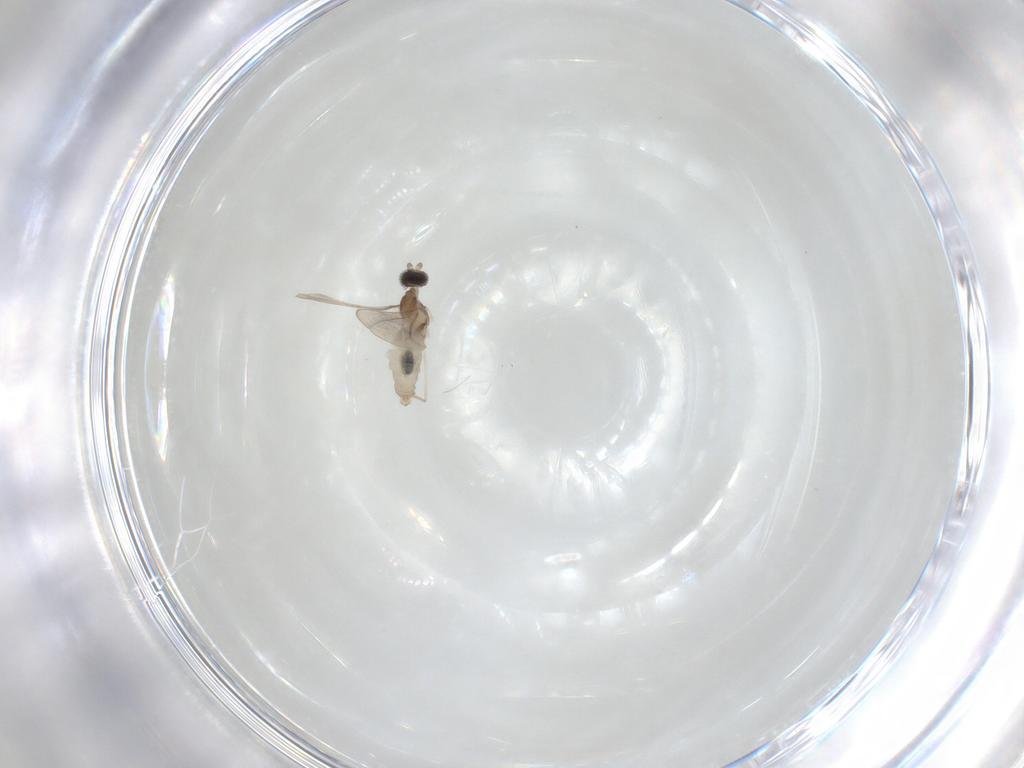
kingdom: Animalia
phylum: Arthropoda
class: Insecta
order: Diptera
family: Cecidomyiidae
